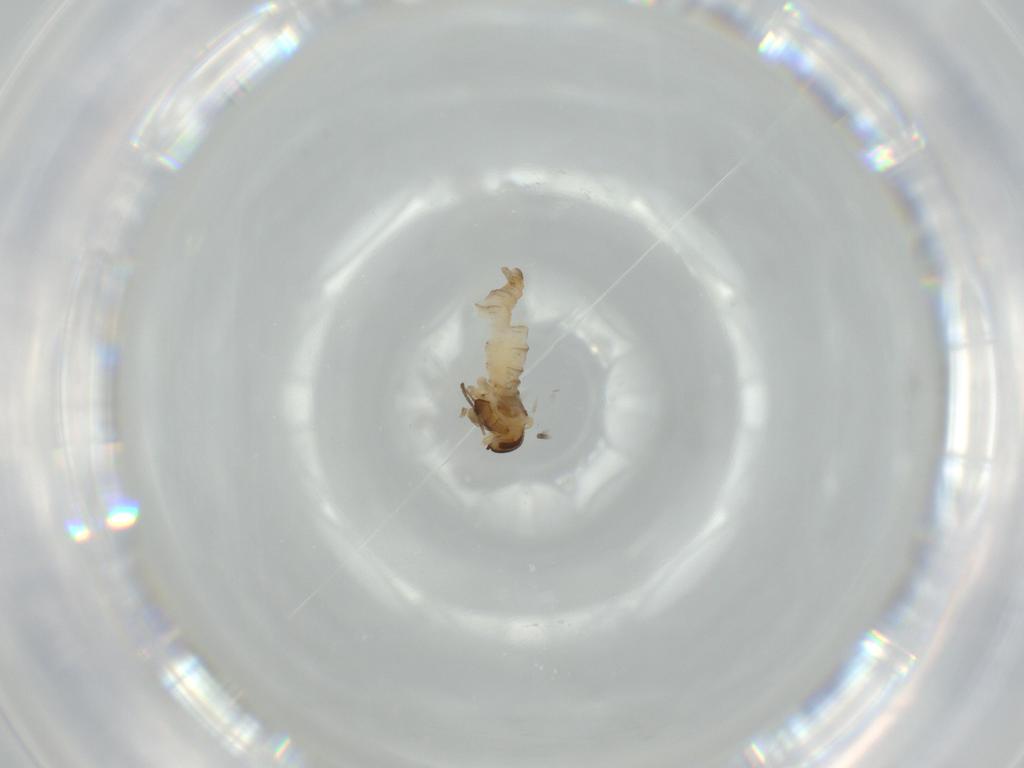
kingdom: Animalia
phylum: Arthropoda
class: Insecta
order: Diptera
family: Cecidomyiidae
